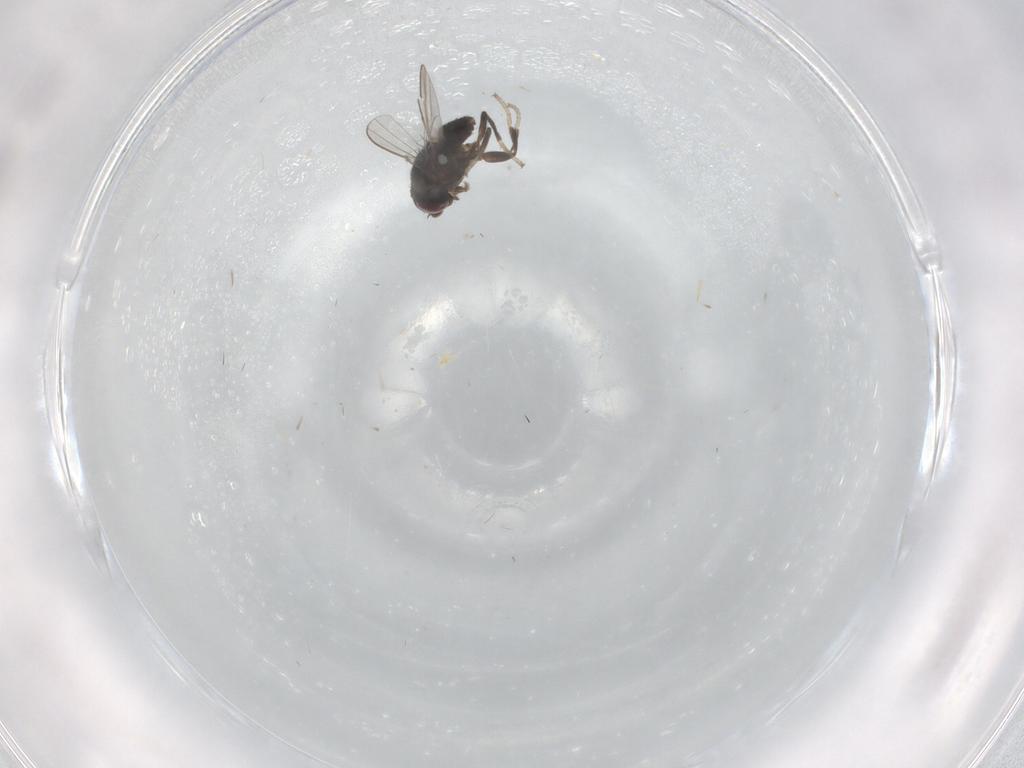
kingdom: Animalia
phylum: Arthropoda
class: Insecta
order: Diptera
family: Milichiidae
